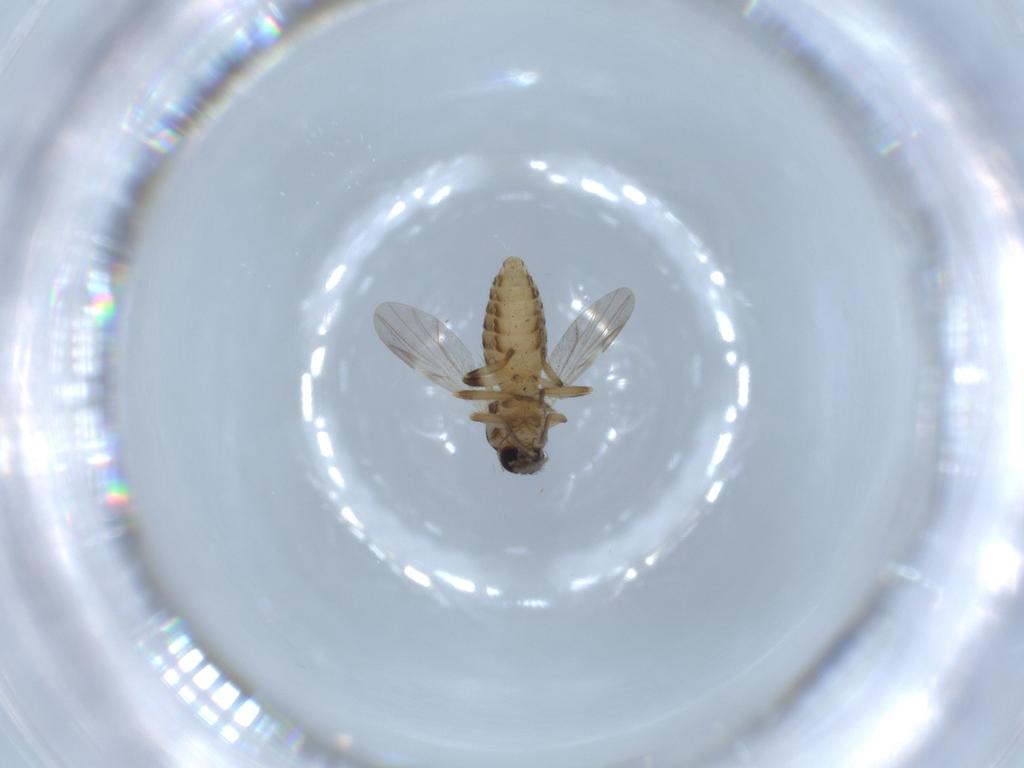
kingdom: Animalia
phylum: Arthropoda
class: Insecta
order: Diptera
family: Ceratopogonidae
